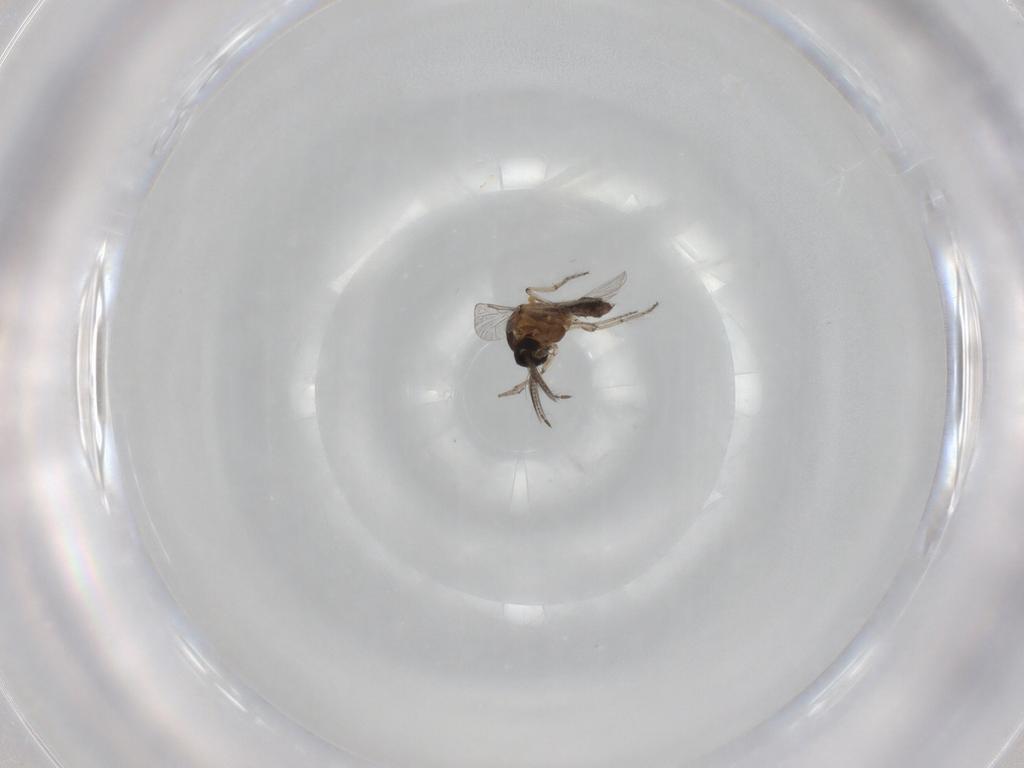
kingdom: Animalia
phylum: Arthropoda
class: Insecta
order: Diptera
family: Ceratopogonidae
